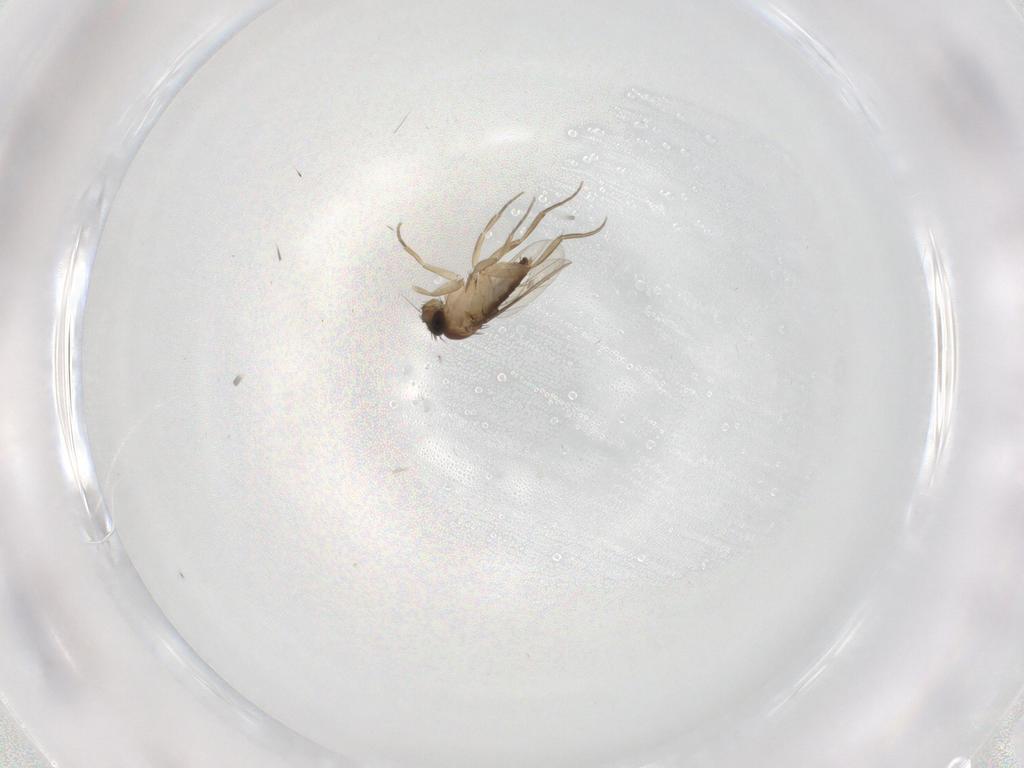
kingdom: Animalia
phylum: Arthropoda
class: Insecta
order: Diptera
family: Phoridae
